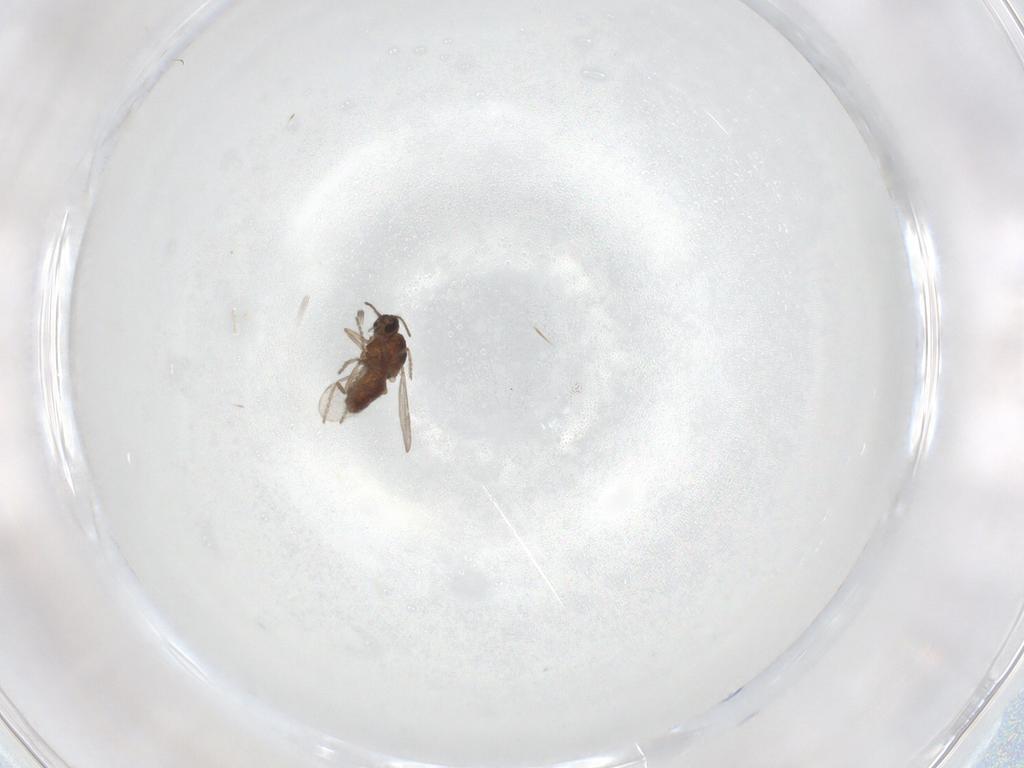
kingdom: Animalia
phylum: Arthropoda
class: Insecta
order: Diptera
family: Ceratopogonidae
